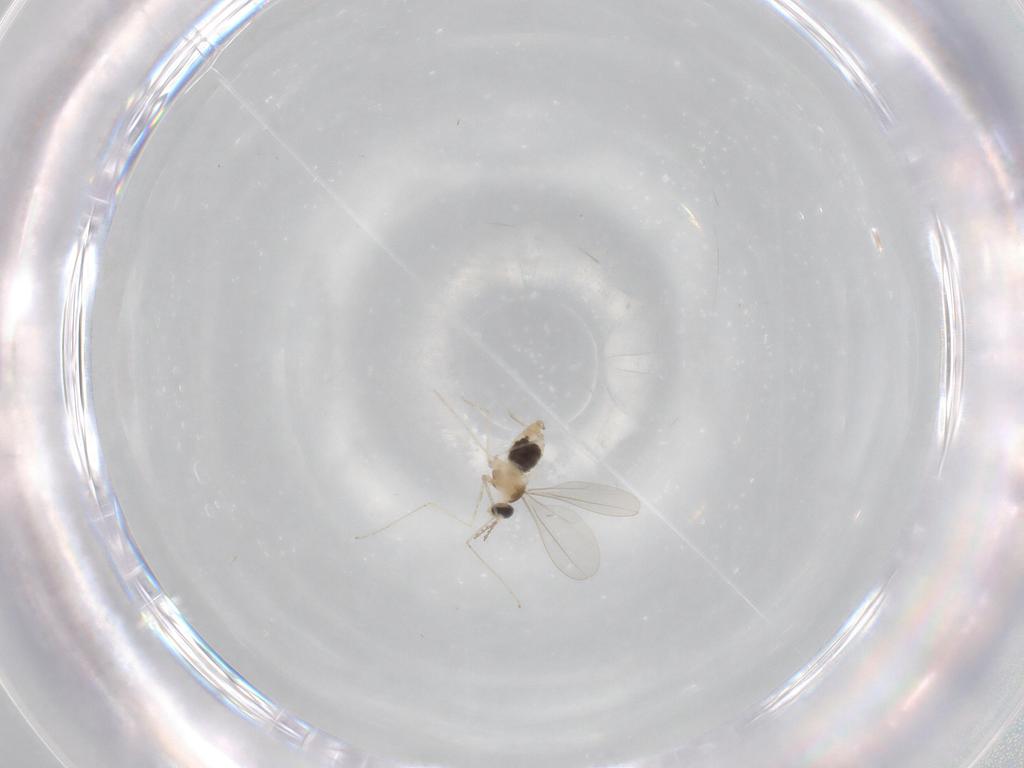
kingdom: Animalia
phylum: Arthropoda
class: Insecta
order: Diptera
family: Cecidomyiidae
